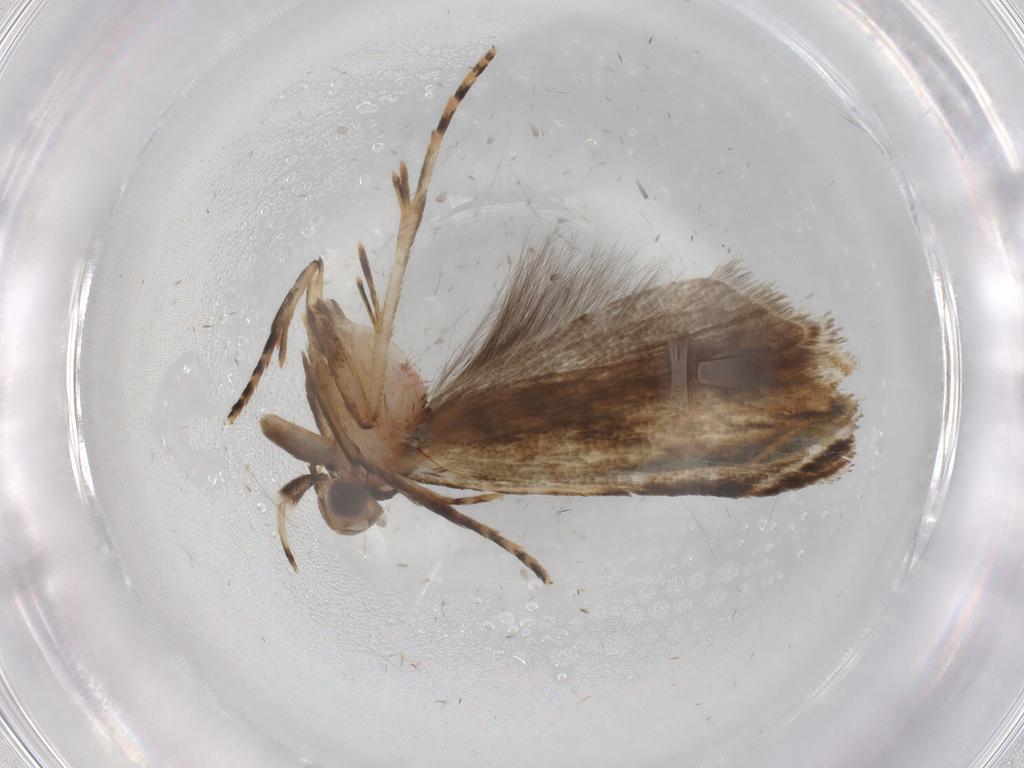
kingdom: Animalia
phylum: Arthropoda
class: Insecta
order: Lepidoptera
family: Gelechiidae
